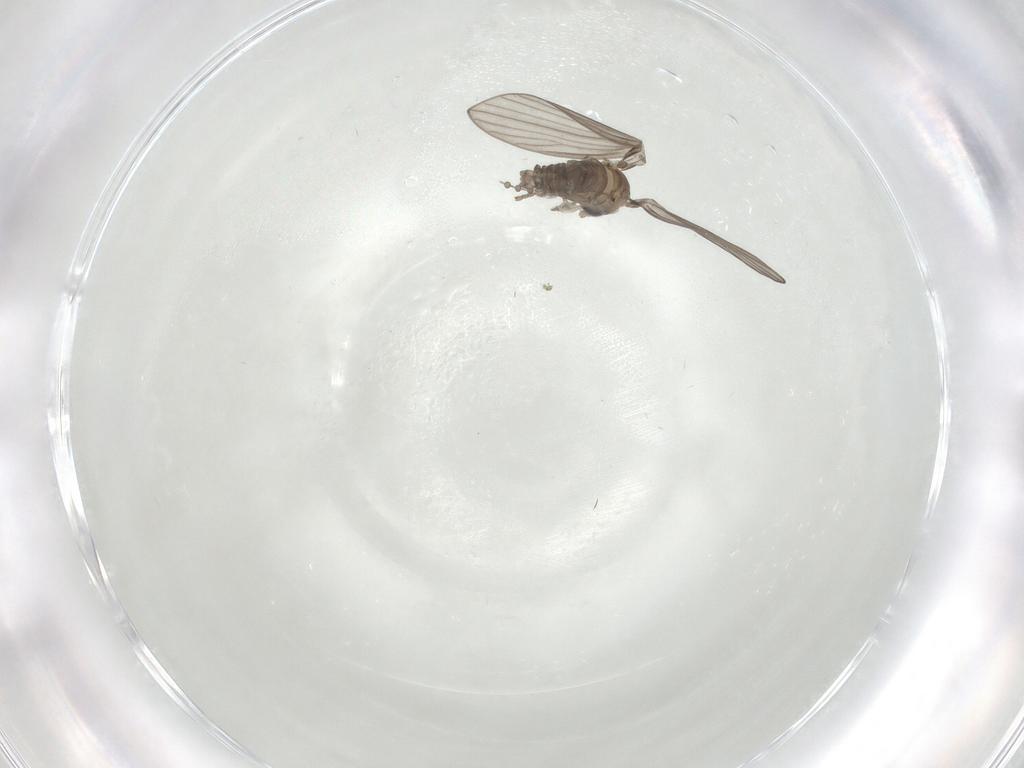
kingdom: Animalia
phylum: Arthropoda
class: Insecta
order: Diptera
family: Psychodidae
